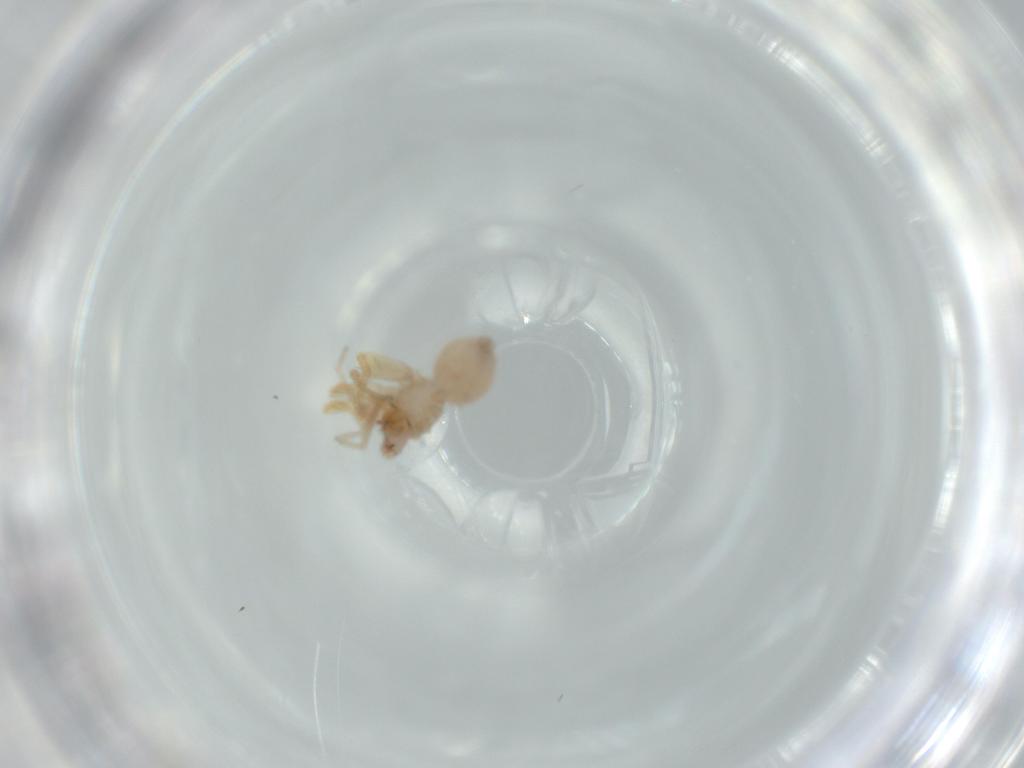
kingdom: Animalia
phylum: Arthropoda
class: Arachnida
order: Araneae
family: Oonopidae
